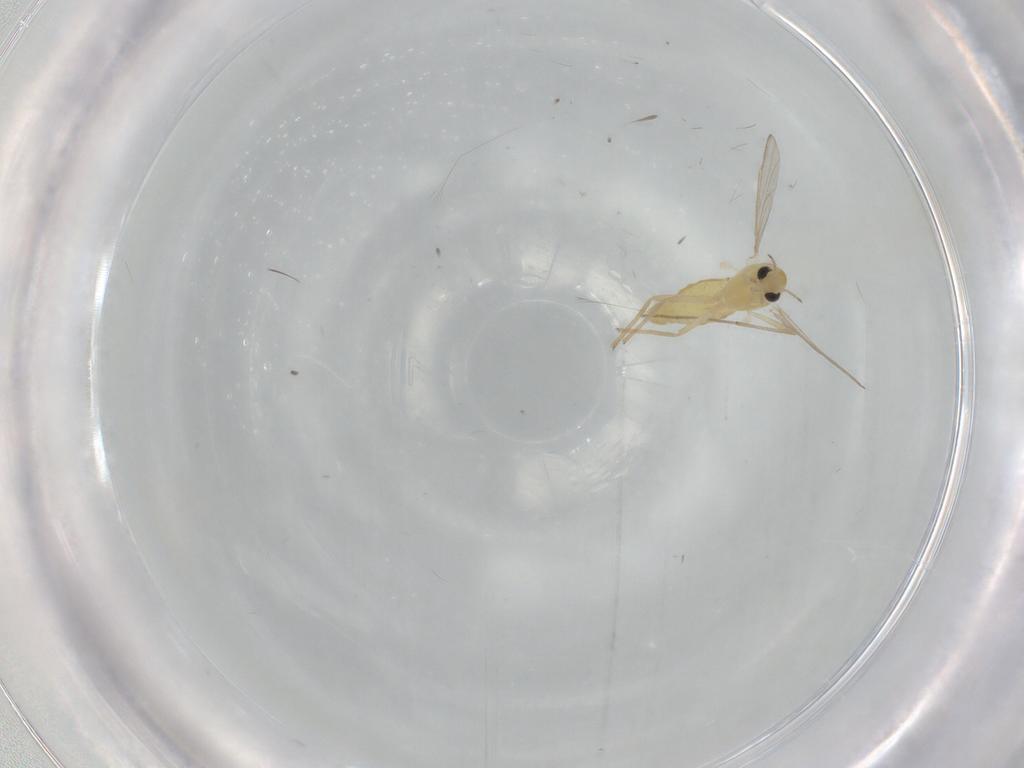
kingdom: Animalia
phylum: Arthropoda
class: Insecta
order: Diptera
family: Chironomidae
